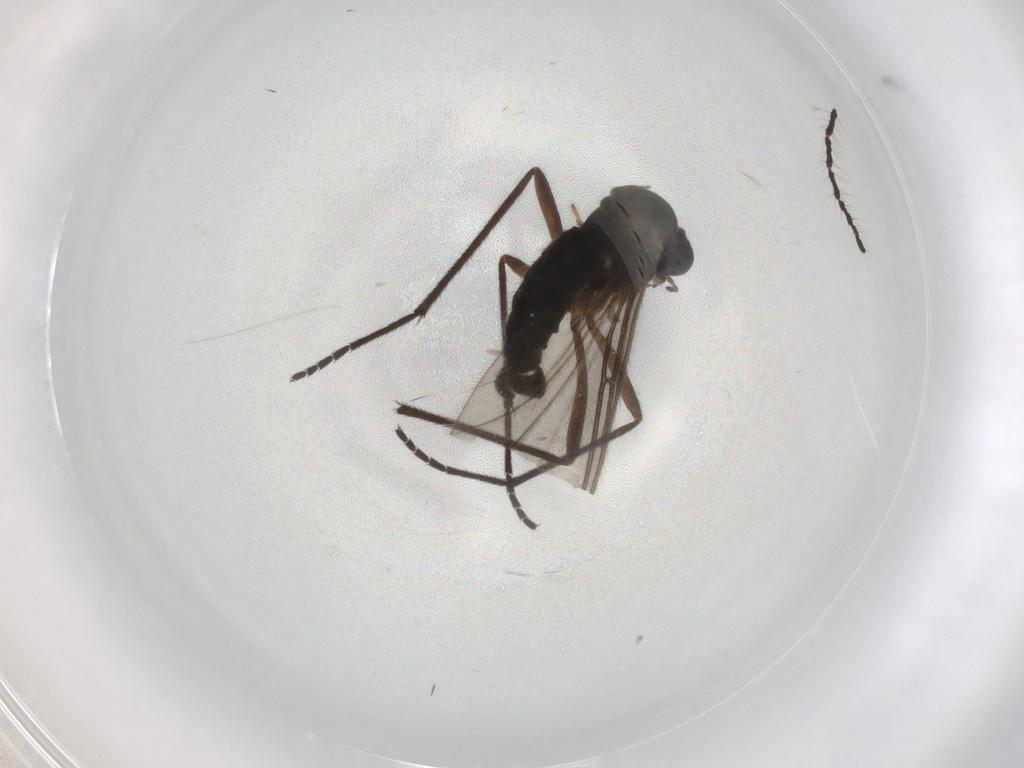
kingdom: Animalia
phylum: Arthropoda
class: Insecta
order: Diptera
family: Sciaridae
